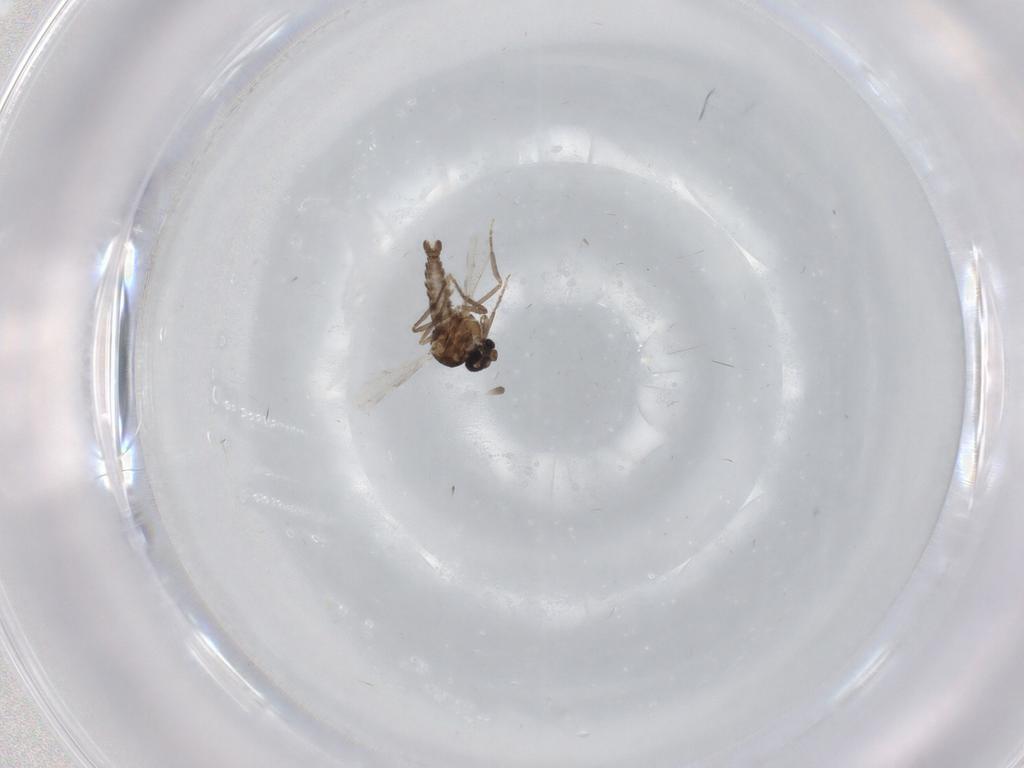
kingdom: Animalia
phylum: Arthropoda
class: Insecta
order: Diptera
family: Ceratopogonidae
